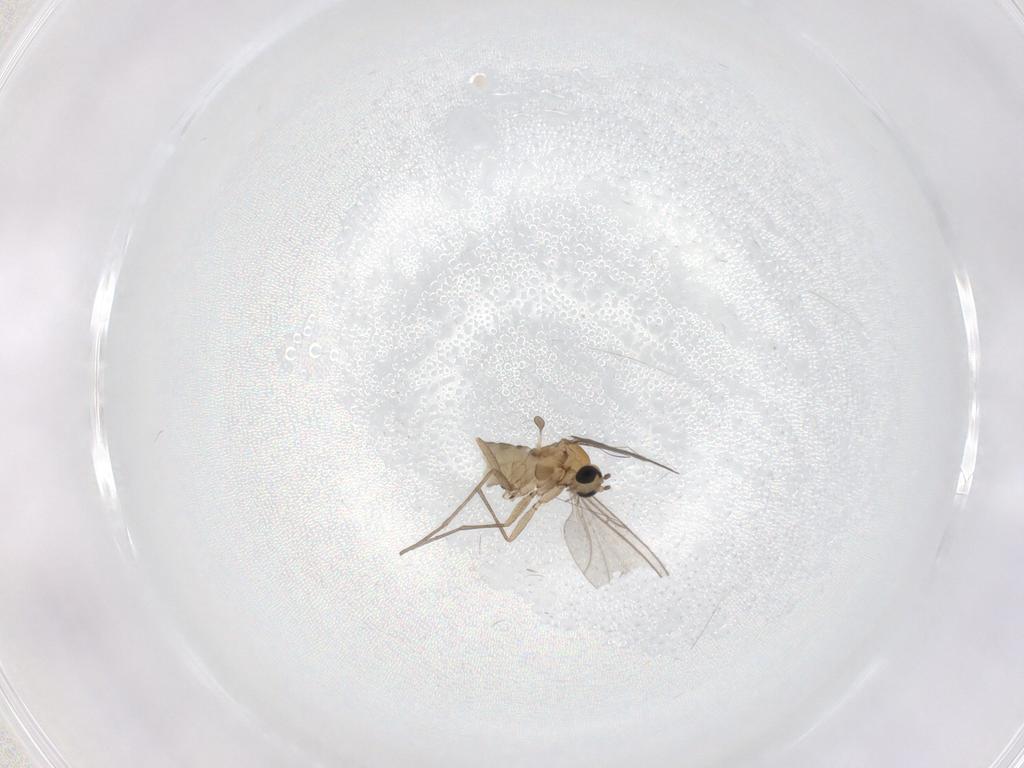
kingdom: Animalia
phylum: Arthropoda
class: Insecta
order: Diptera
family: Sciaridae
